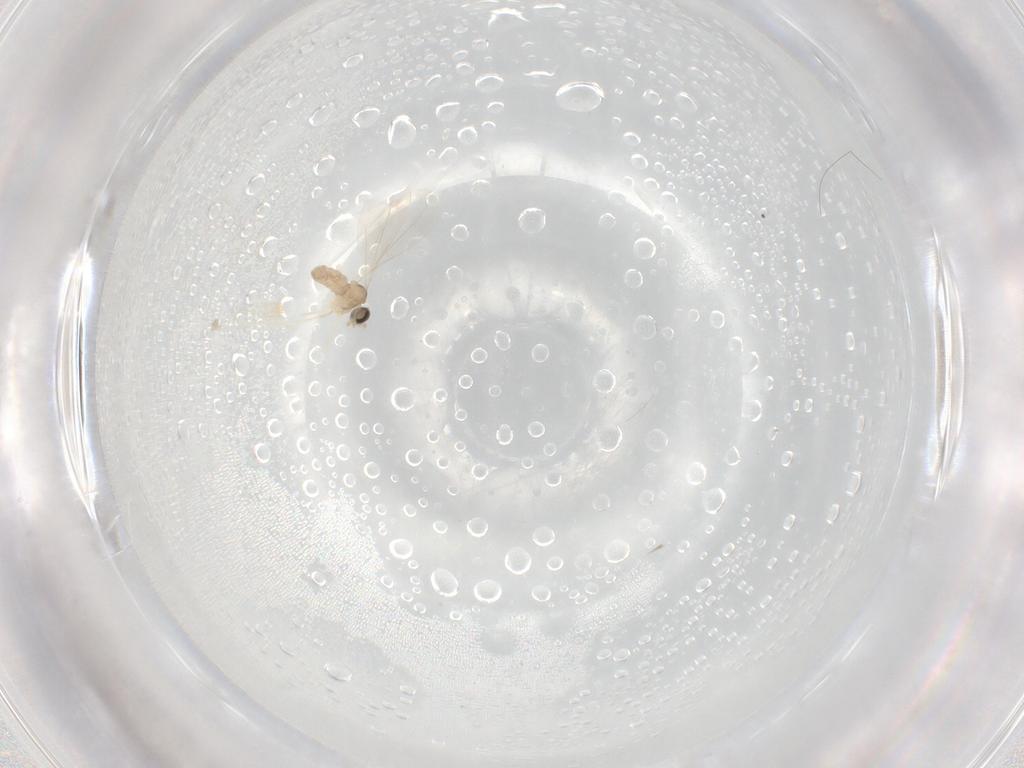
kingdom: Animalia
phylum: Arthropoda
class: Insecta
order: Diptera
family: Cecidomyiidae
